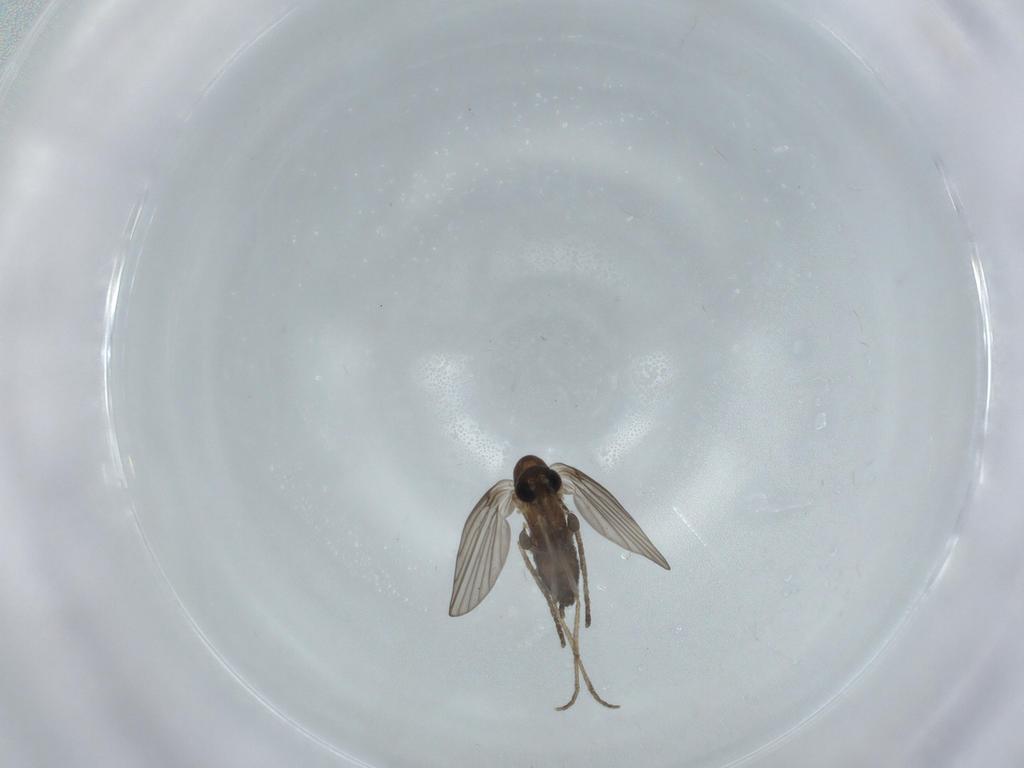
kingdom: Animalia
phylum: Arthropoda
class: Insecta
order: Diptera
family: Psychodidae
